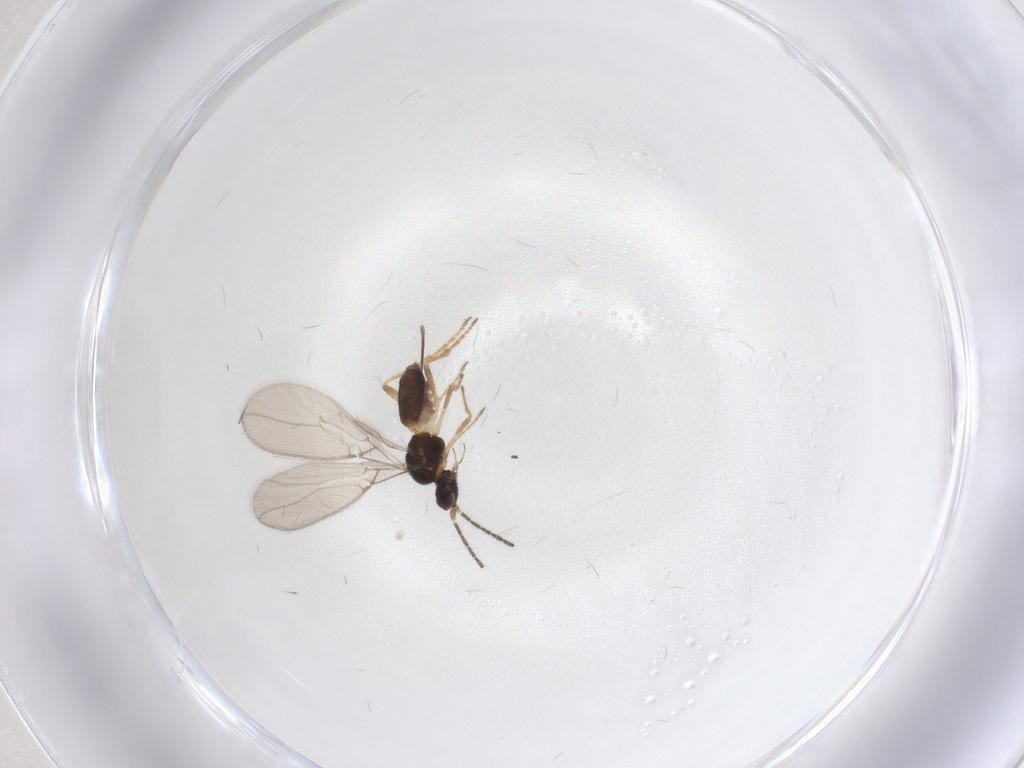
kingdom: Animalia
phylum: Arthropoda
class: Insecta
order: Hymenoptera
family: Braconidae
